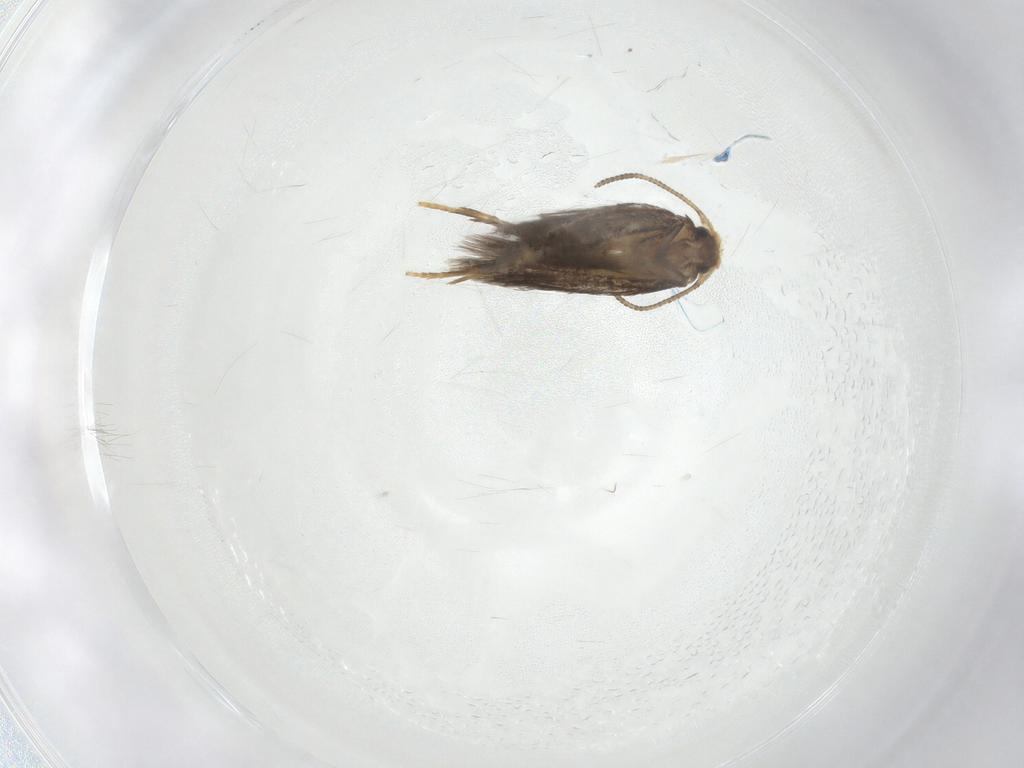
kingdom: Animalia
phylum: Arthropoda
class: Insecta
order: Lepidoptera
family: Nepticulidae
